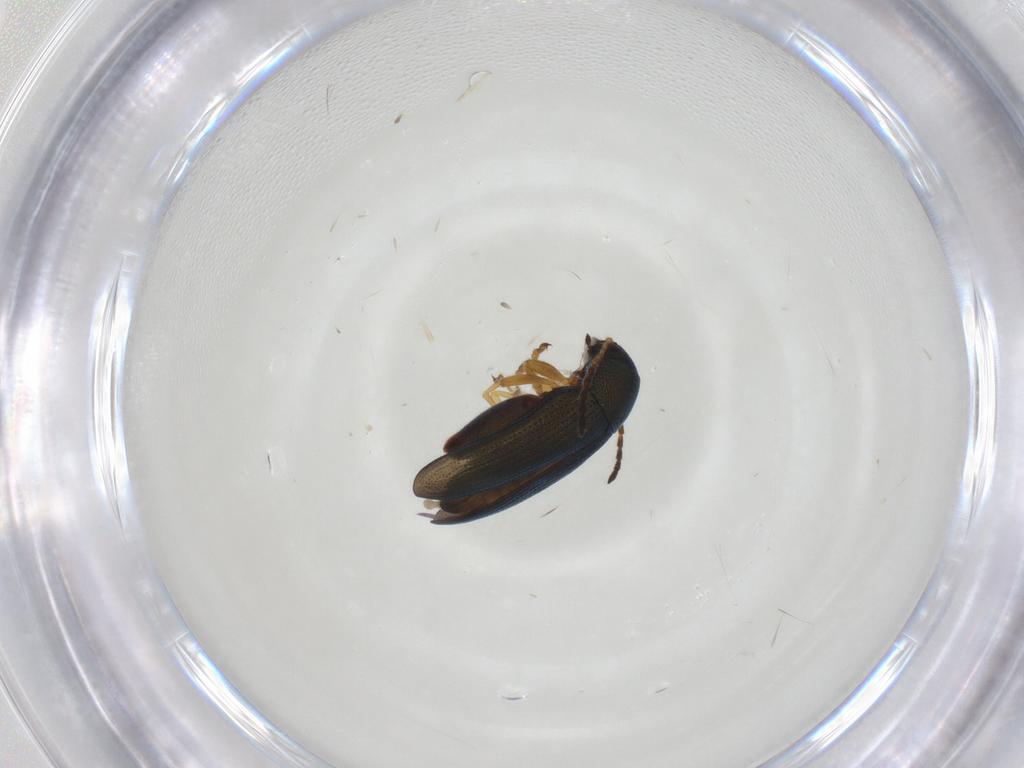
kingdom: Animalia
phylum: Arthropoda
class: Insecta
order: Coleoptera
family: Chrysomelidae
